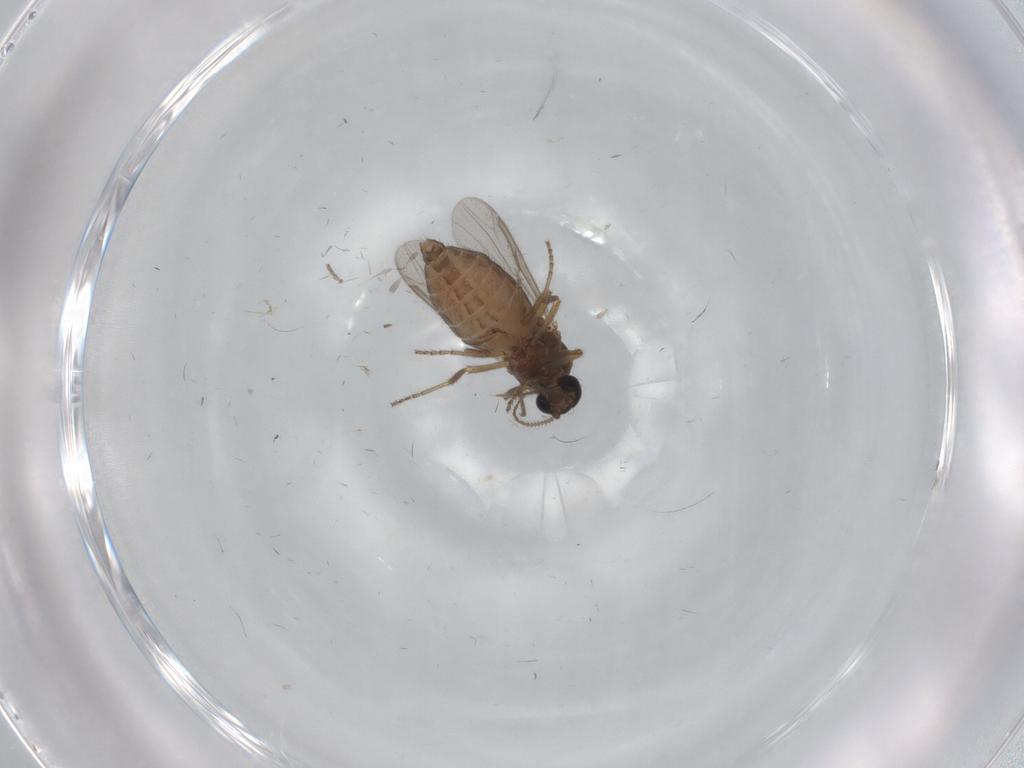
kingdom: Animalia
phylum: Arthropoda
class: Insecta
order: Diptera
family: Ceratopogonidae
